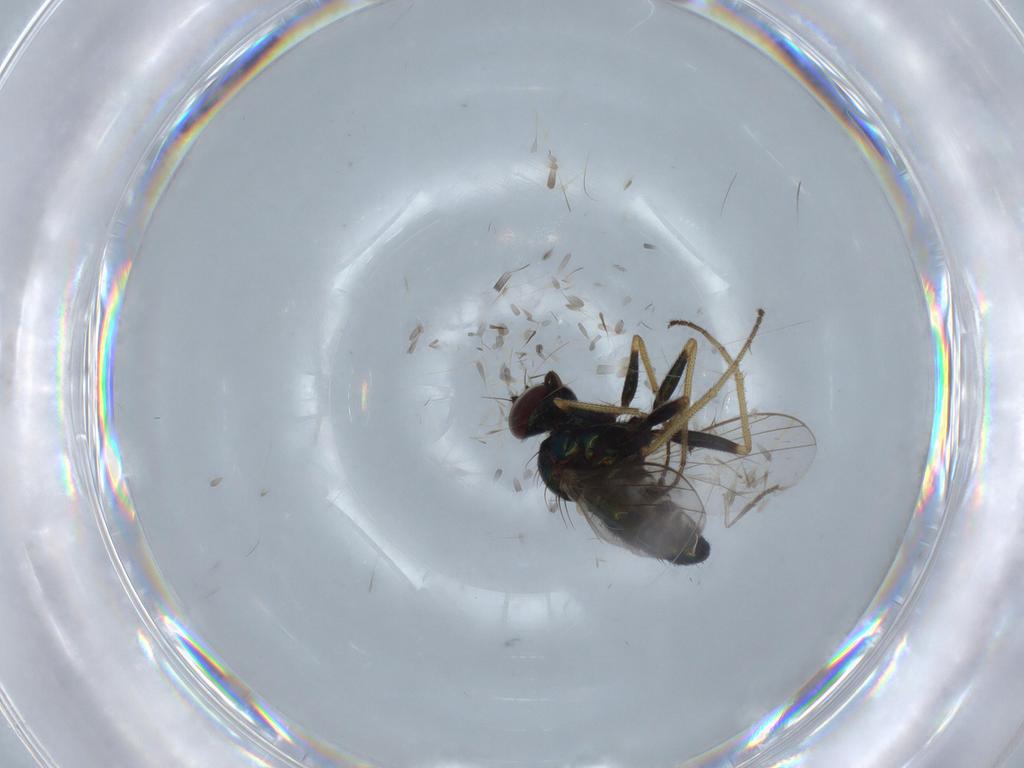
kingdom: Animalia
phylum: Arthropoda
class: Insecta
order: Diptera
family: Dolichopodidae
